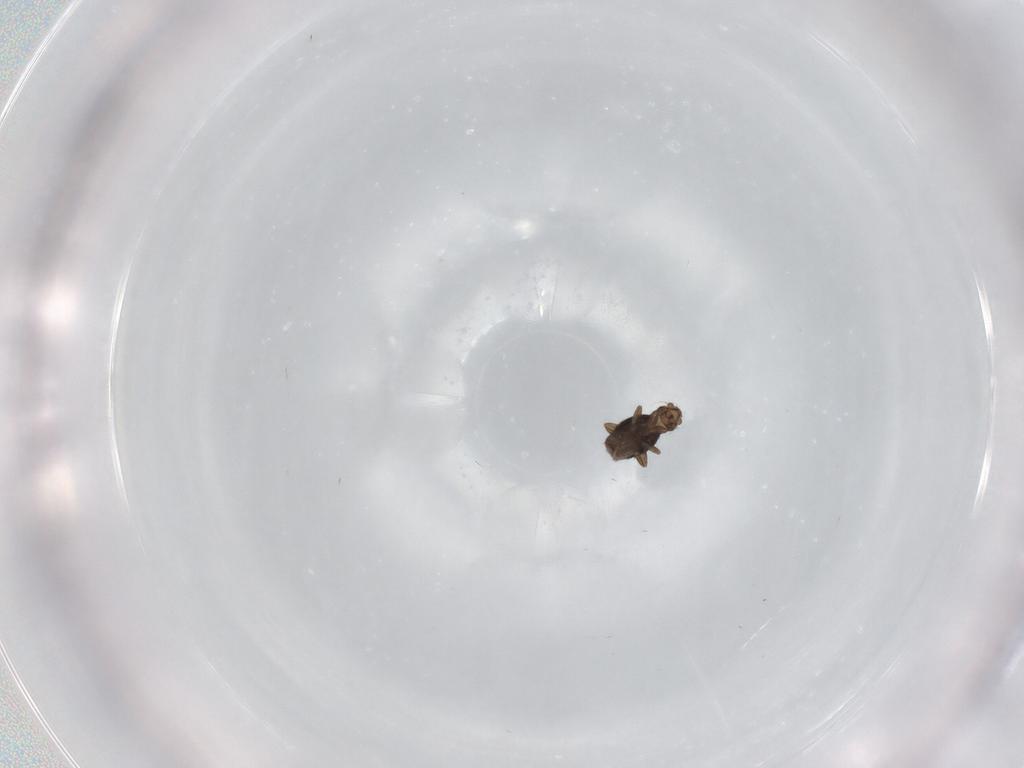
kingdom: Animalia
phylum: Arthropoda
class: Insecta
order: Diptera
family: Phoridae
